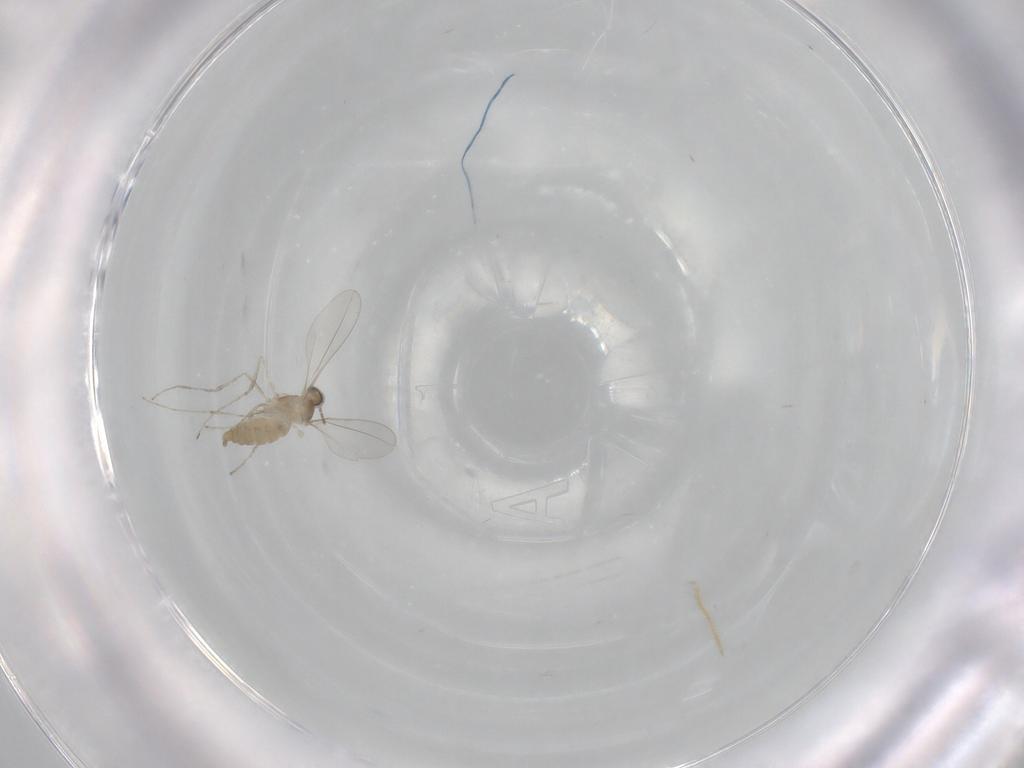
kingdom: Animalia
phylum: Arthropoda
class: Insecta
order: Diptera
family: Cecidomyiidae
